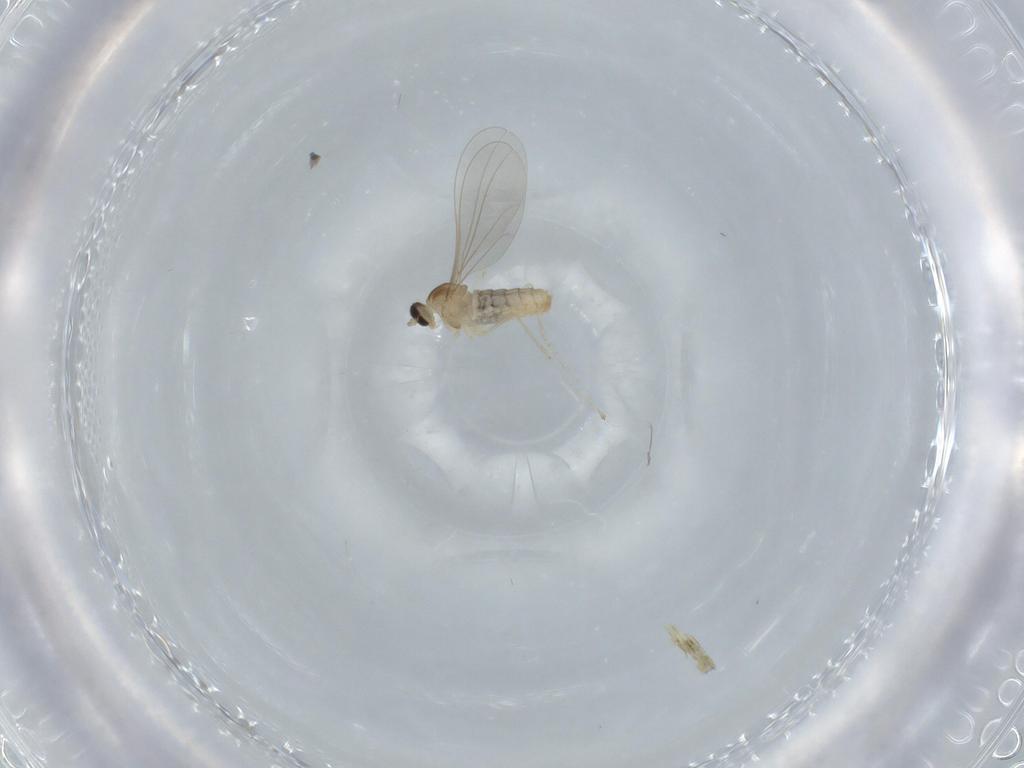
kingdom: Animalia
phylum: Arthropoda
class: Insecta
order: Diptera
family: Cecidomyiidae
